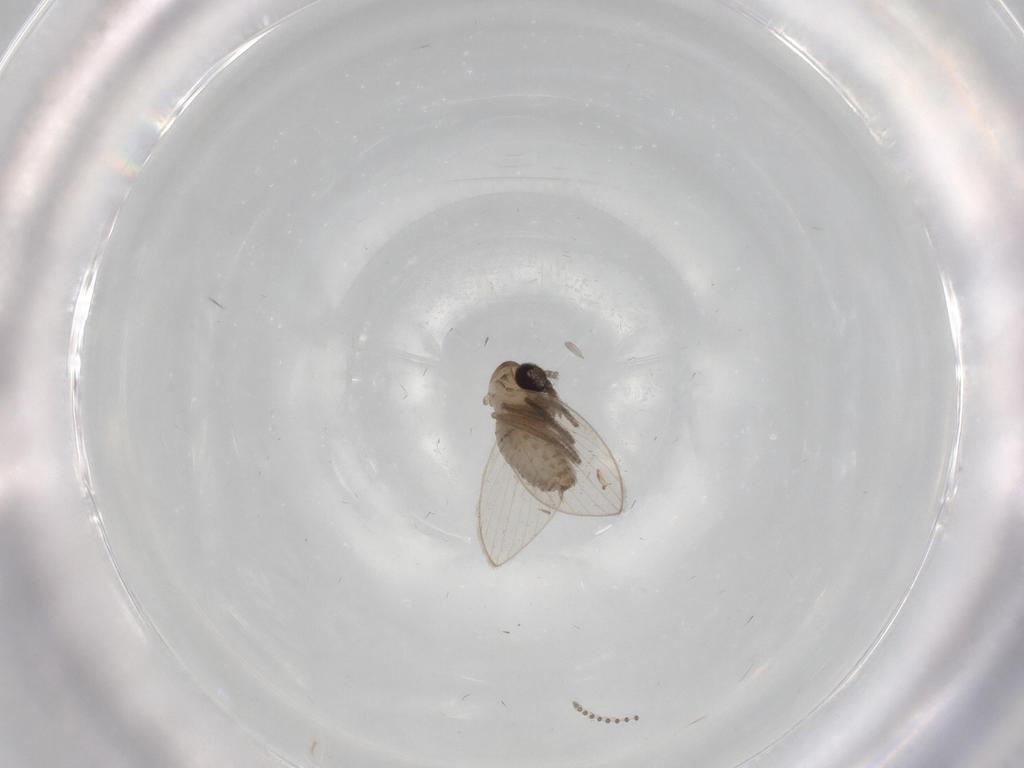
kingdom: Animalia
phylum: Arthropoda
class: Insecta
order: Diptera
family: Psychodidae
